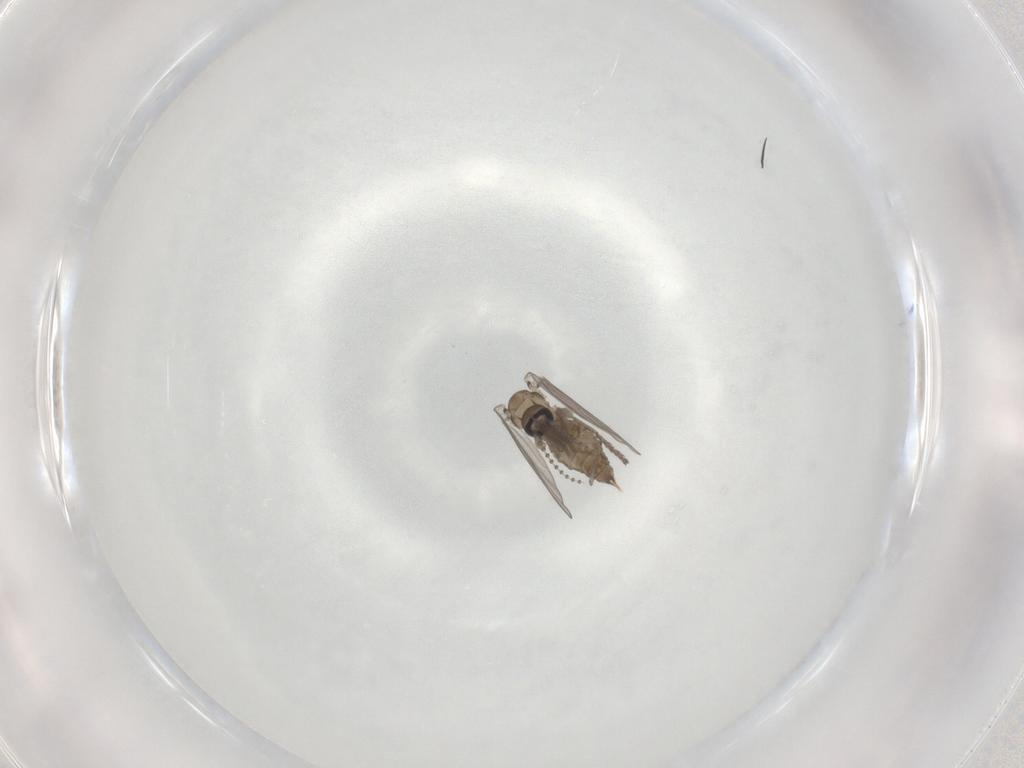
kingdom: Animalia
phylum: Arthropoda
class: Insecta
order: Diptera
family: Psychodidae
